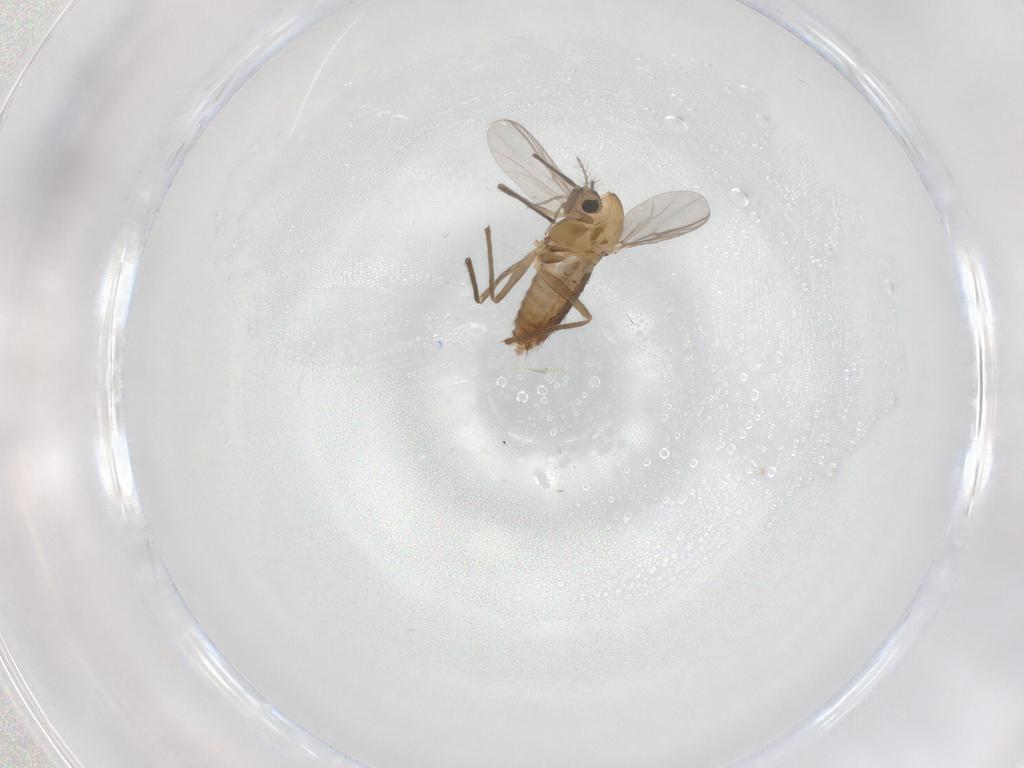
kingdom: Animalia
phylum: Arthropoda
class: Insecta
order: Diptera
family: Chironomidae
